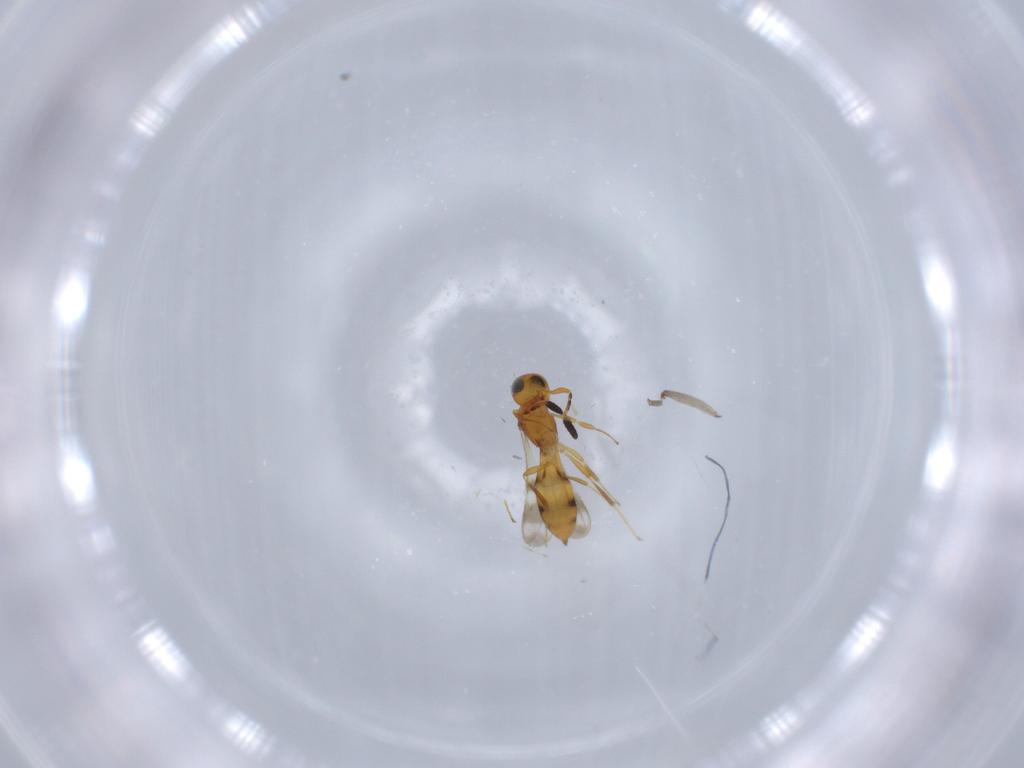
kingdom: Animalia
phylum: Arthropoda
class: Insecta
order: Hymenoptera
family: Scelionidae
